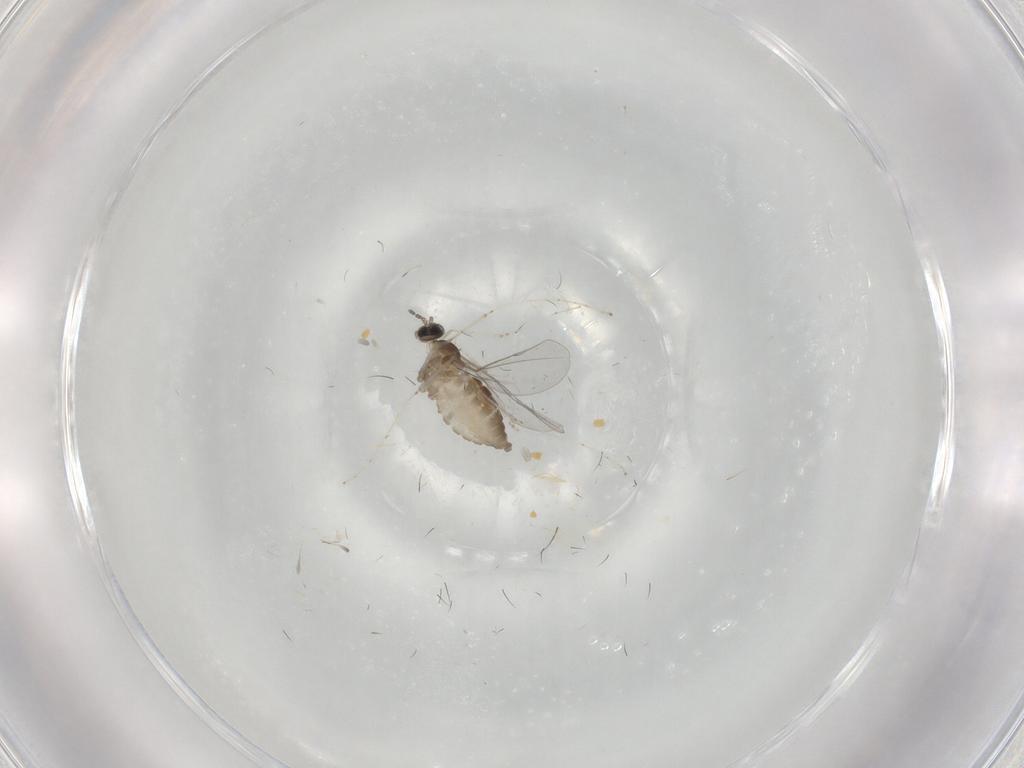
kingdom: Animalia
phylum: Arthropoda
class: Insecta
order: Diptera
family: Cecidomyiidae
